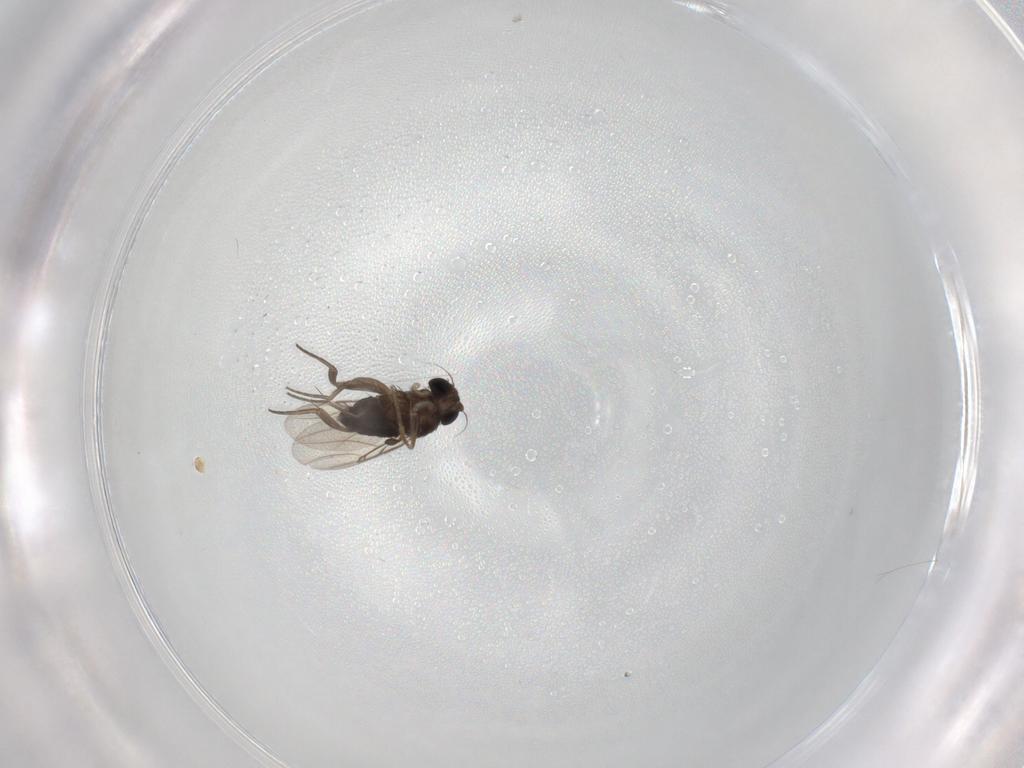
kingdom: Animalia
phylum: Arthropoda
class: Insecta
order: Diptera
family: Phoridae
